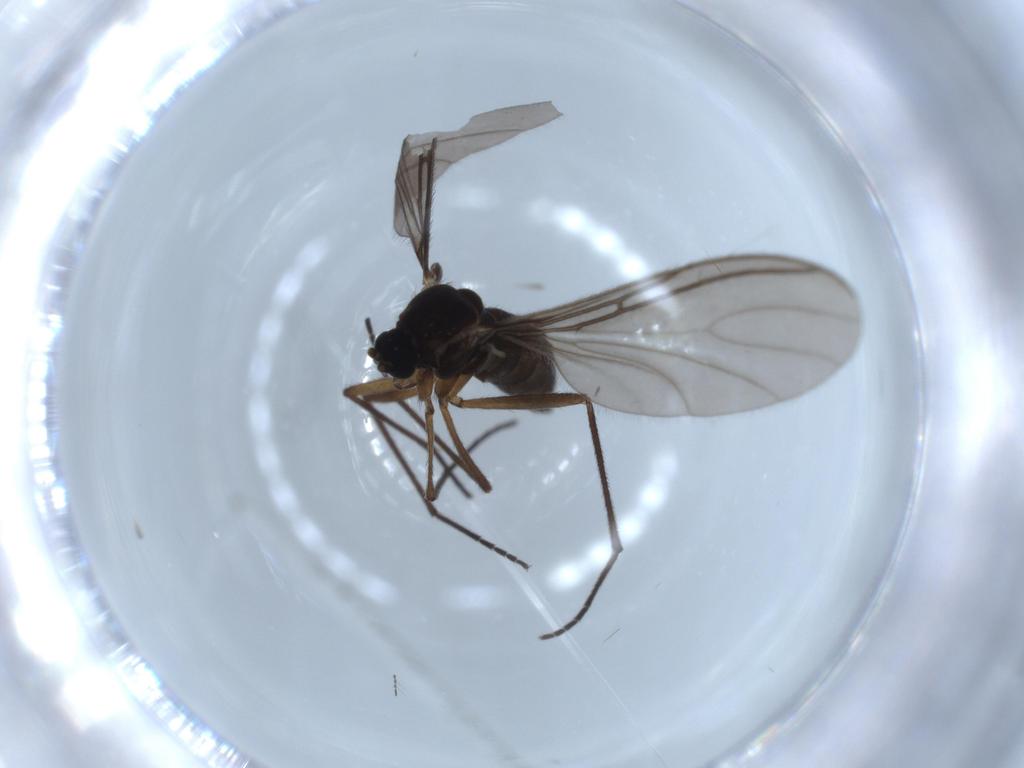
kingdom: Animalia
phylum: Arthropoda
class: Insecta
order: Diptera
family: Sciaridae
